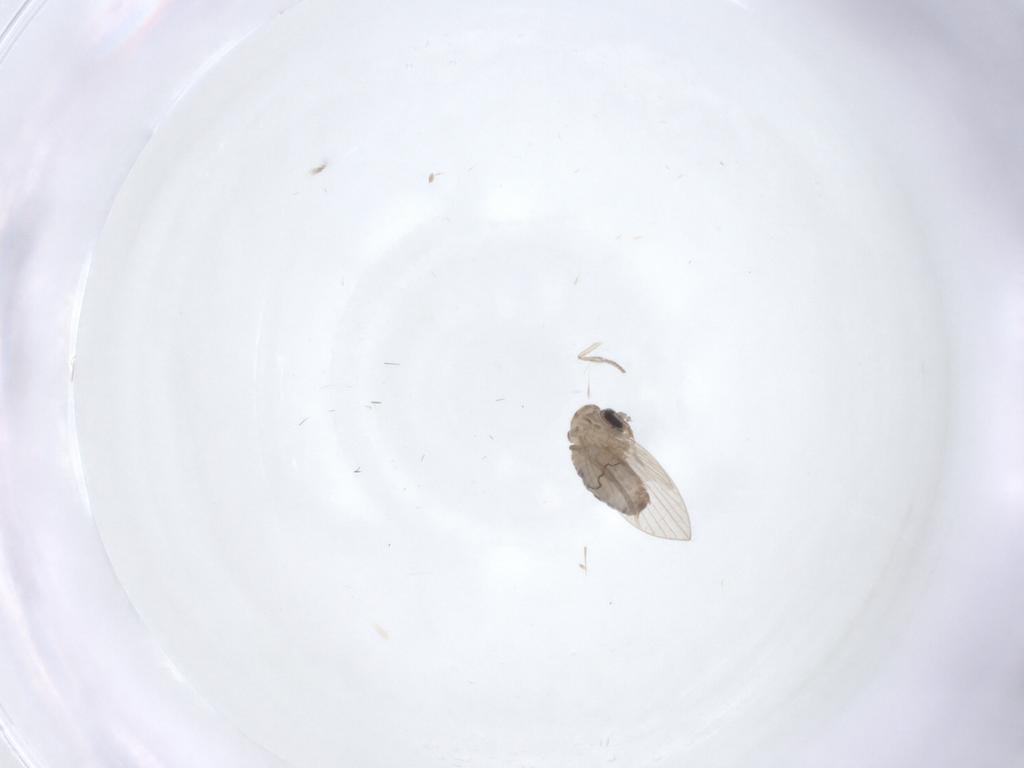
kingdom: Animalia
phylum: Arthropoda
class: Insecta
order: Diptera
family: Psychodidae
